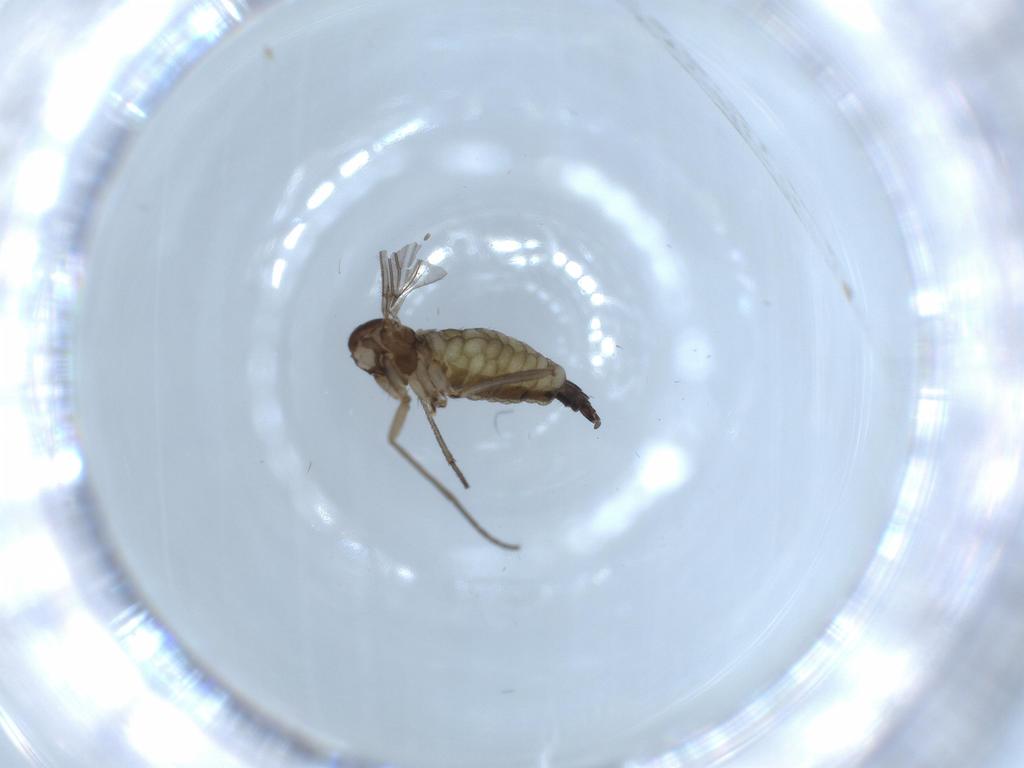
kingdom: Animalia
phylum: Arthropoda
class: Insecta
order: Diptera
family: Sciaridae
